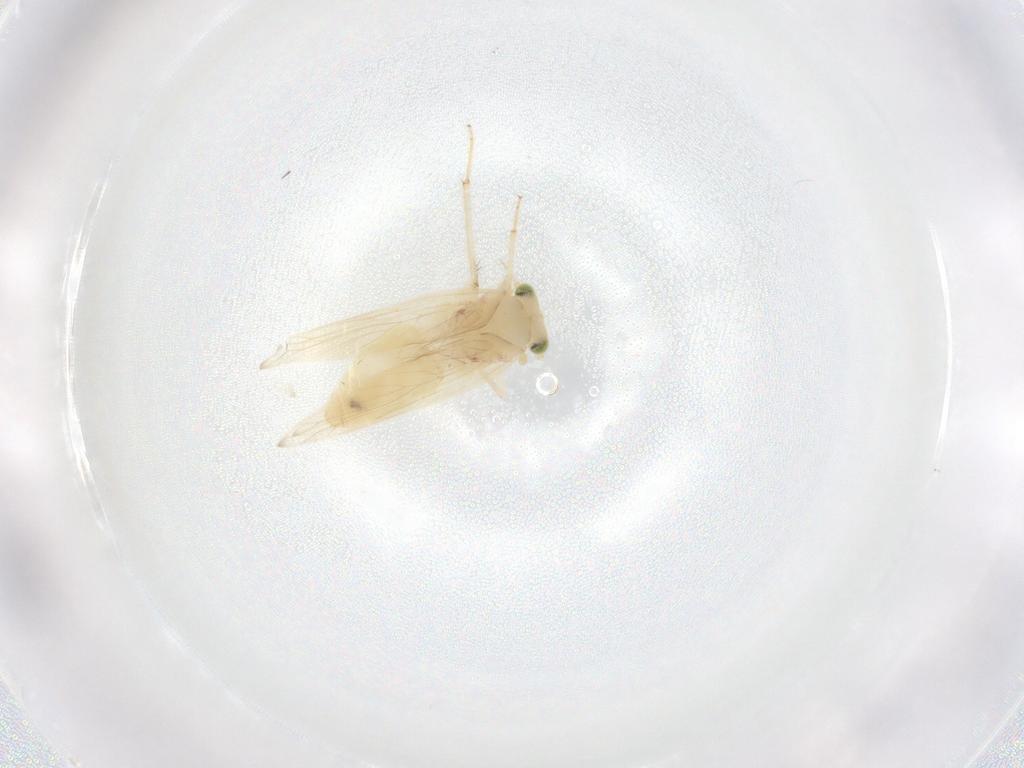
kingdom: Animalia
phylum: Arthropoda
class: Insecta
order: Psocodea
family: Lepidopsocidae
